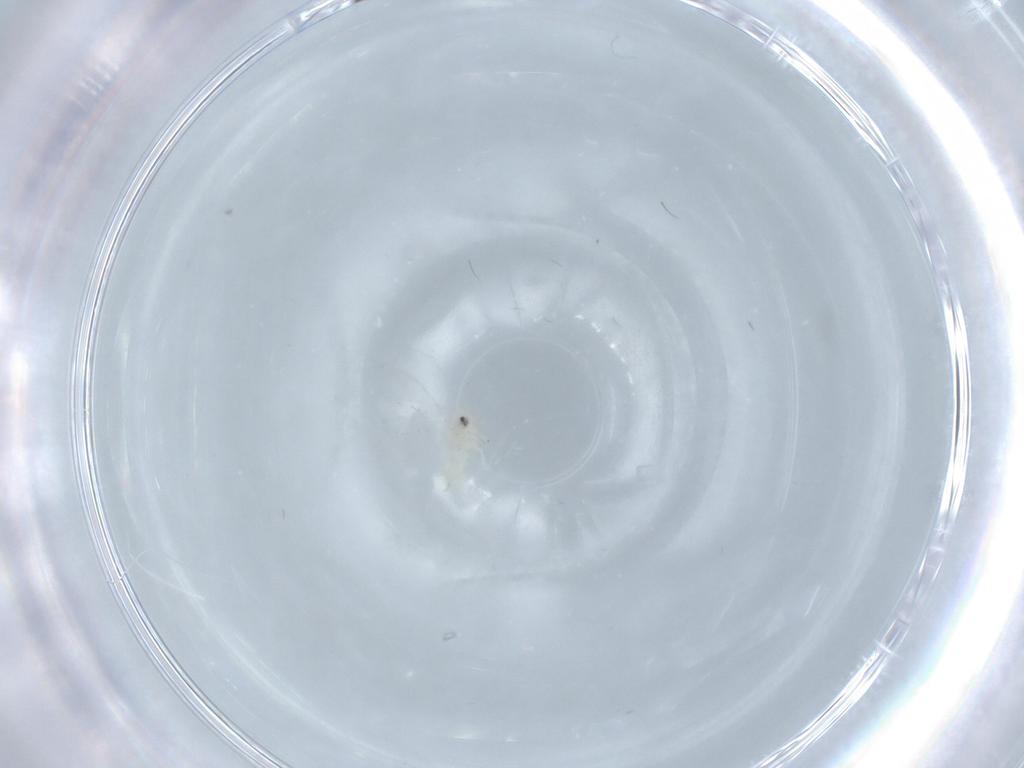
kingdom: Animalia
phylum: Arthropoda
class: Insecta
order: Hemiptera
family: Aleyrodidae
